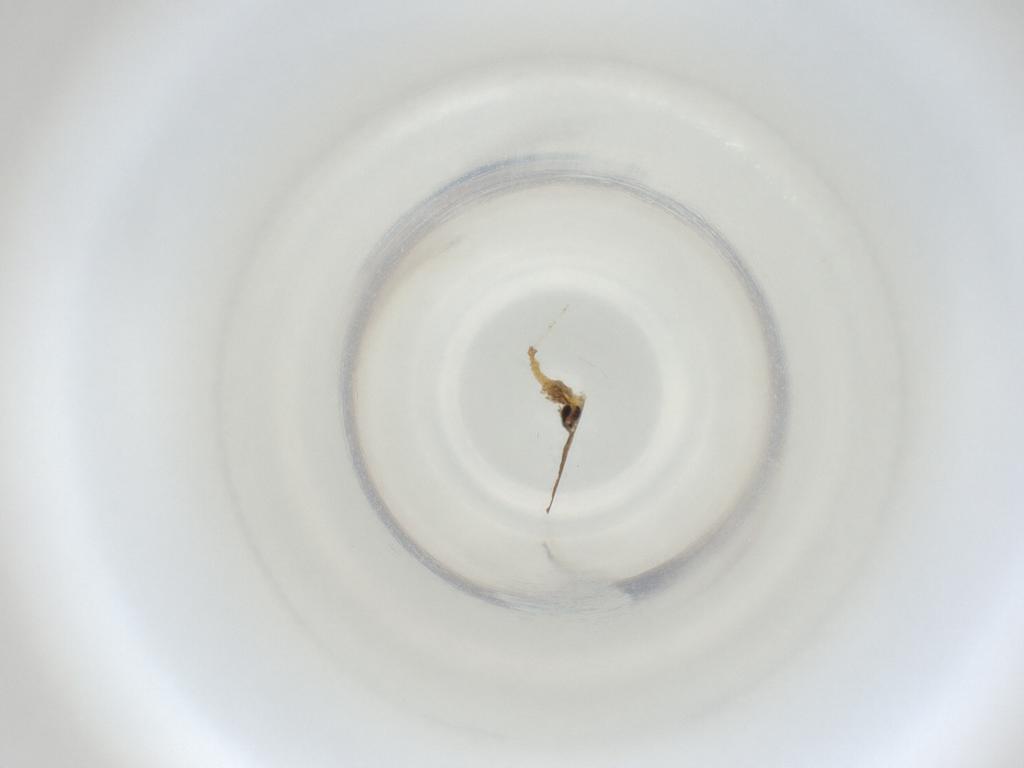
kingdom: Animalia
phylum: Arthropoda
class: Insecta
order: Diptera
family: Cecidomyiidae
